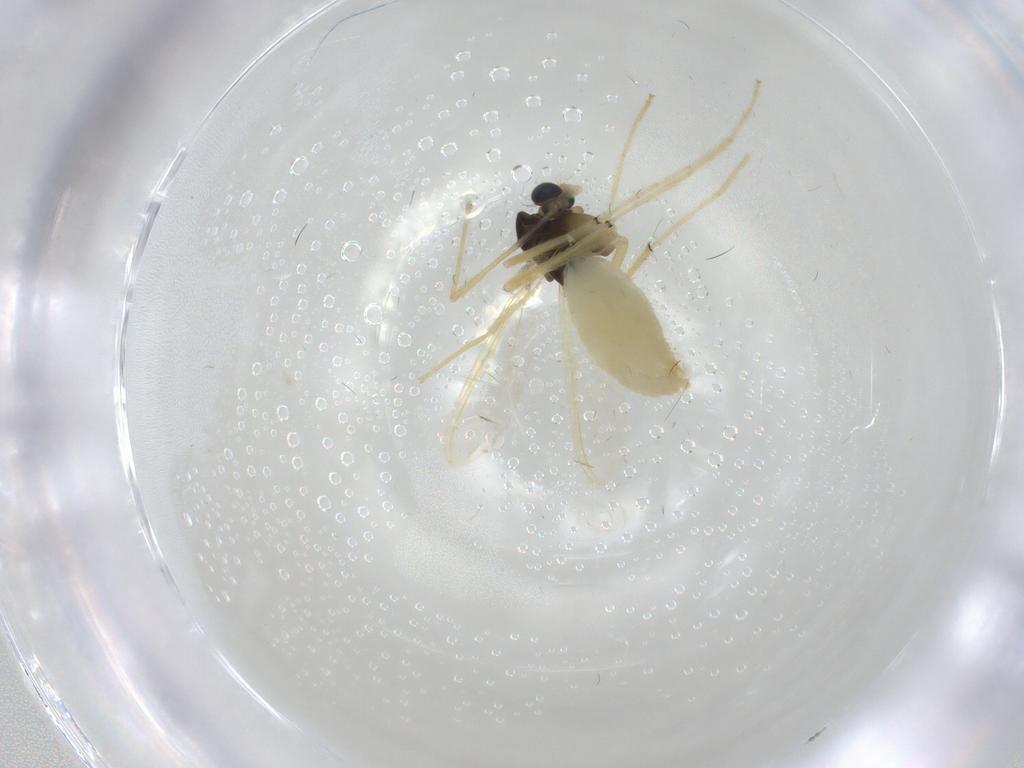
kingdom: Animalia
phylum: Arthropoda
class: Insecta
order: Diptera
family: Chironomidae
